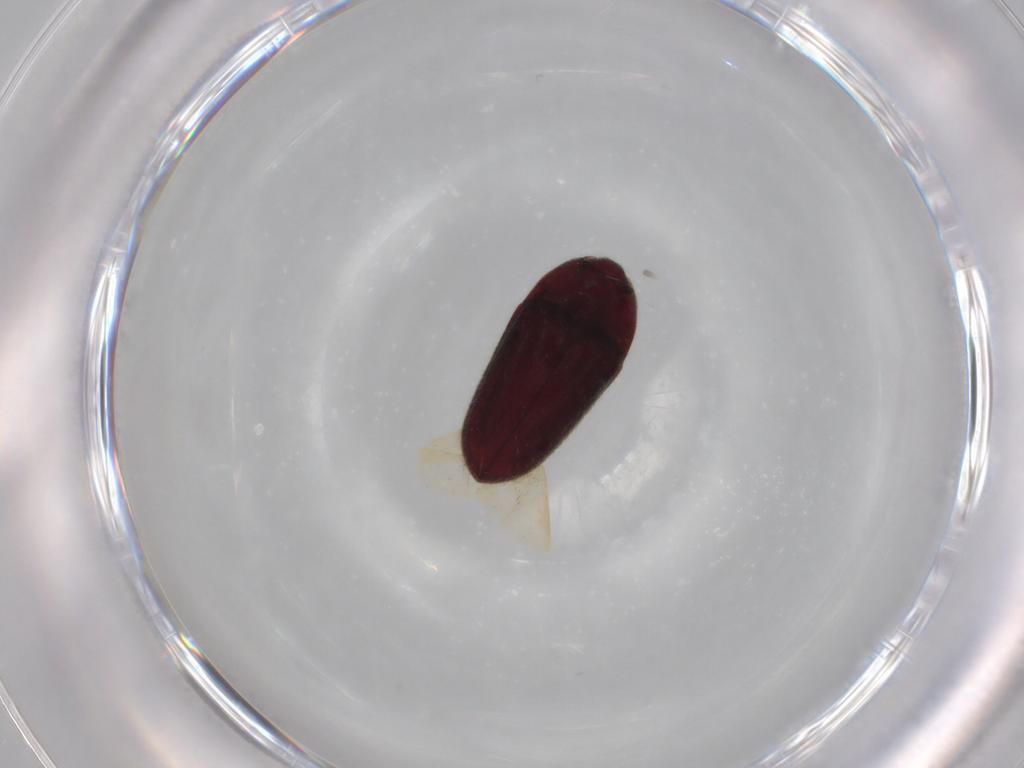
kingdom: Animalia
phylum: Arthropoda
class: Insecta
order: Coleoptera
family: Throscidae
